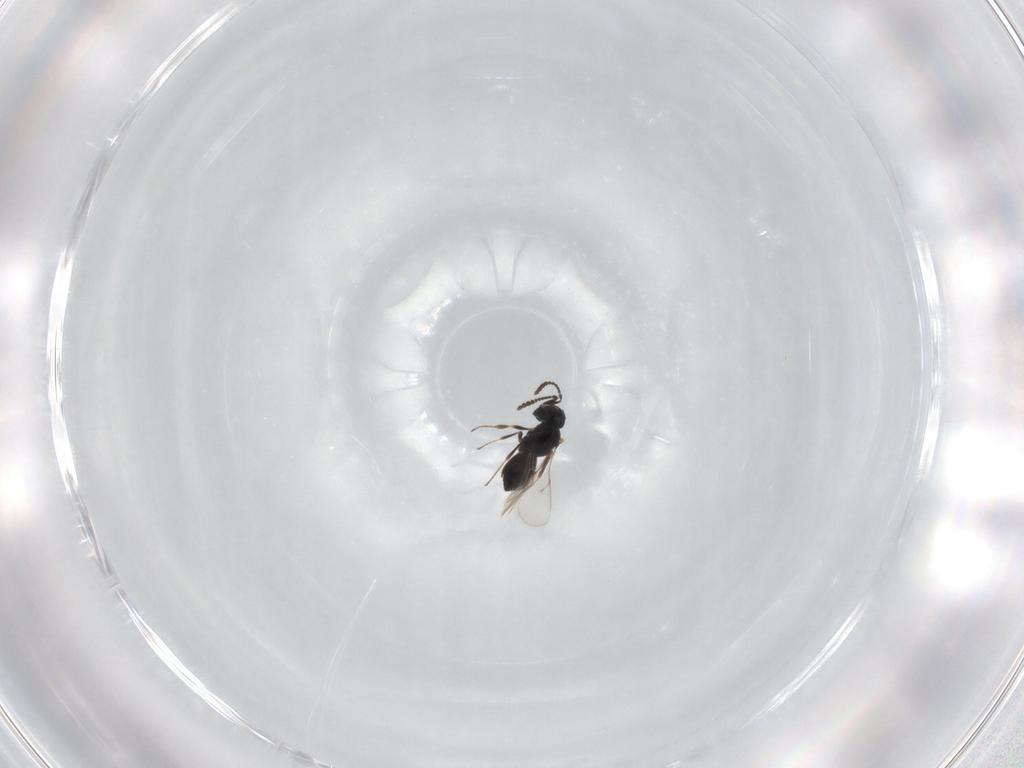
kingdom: Animalia
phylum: Arthropoda
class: Insecta
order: Hymenoptera
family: Scelionidae
